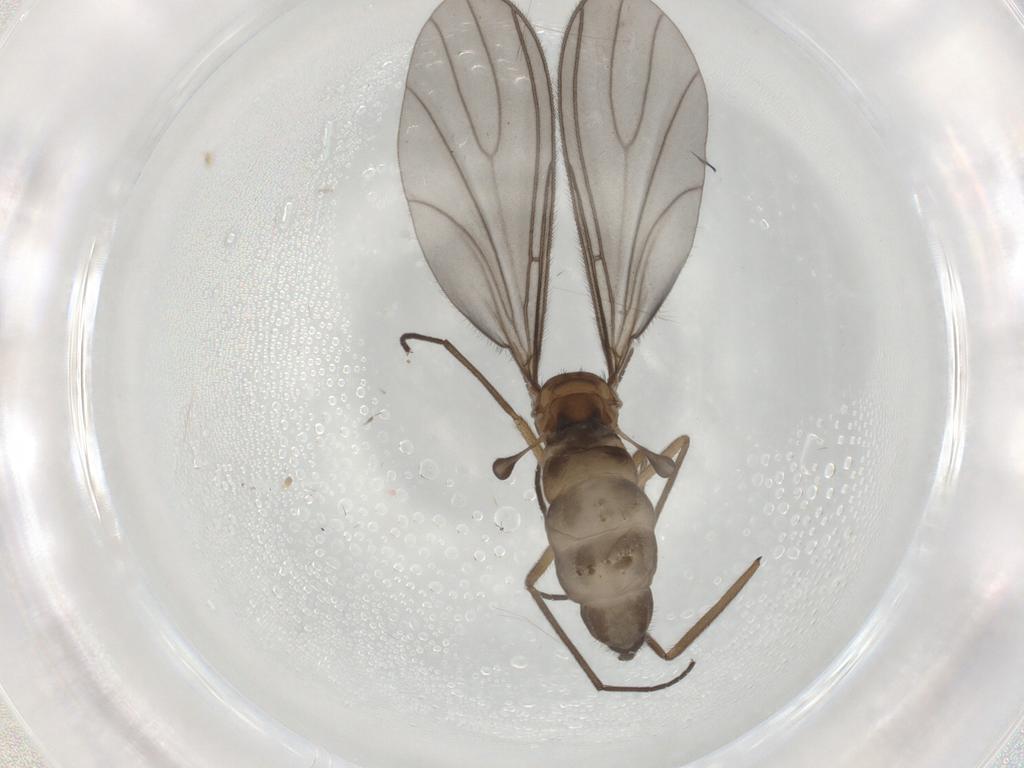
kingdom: Animalia
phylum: Arthropoda
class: Insecta
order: Diptera
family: Sciaridae
